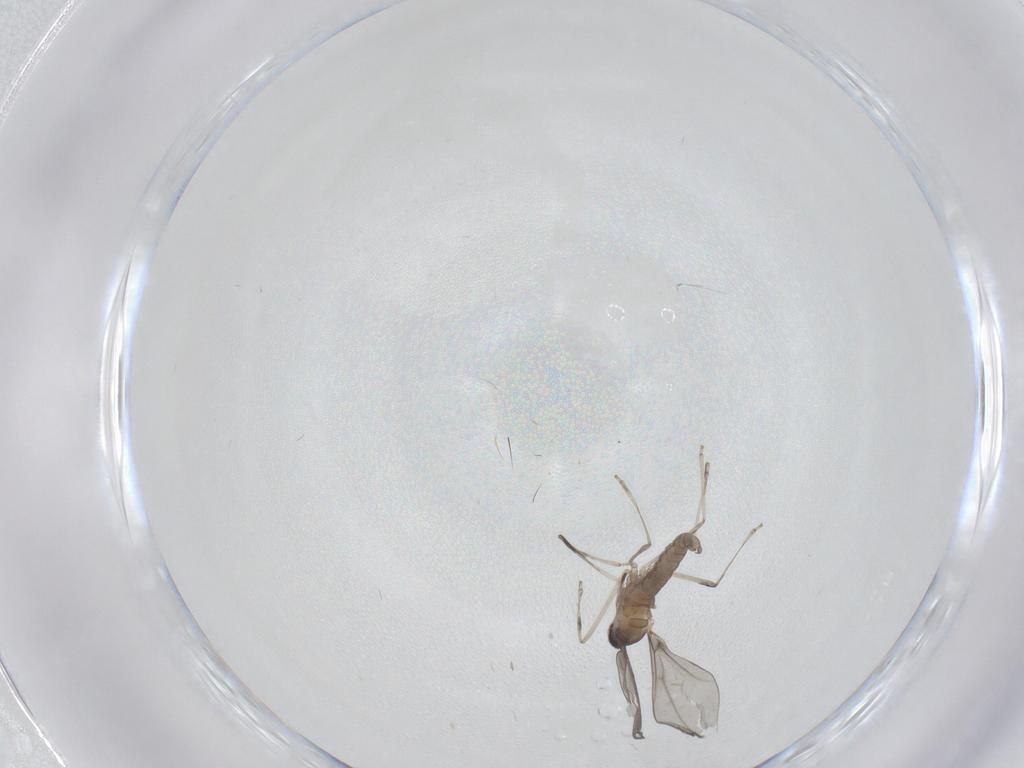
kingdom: Animalia
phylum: Arthropoda
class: Insecta
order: Diptera
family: Cecidomyiidae
